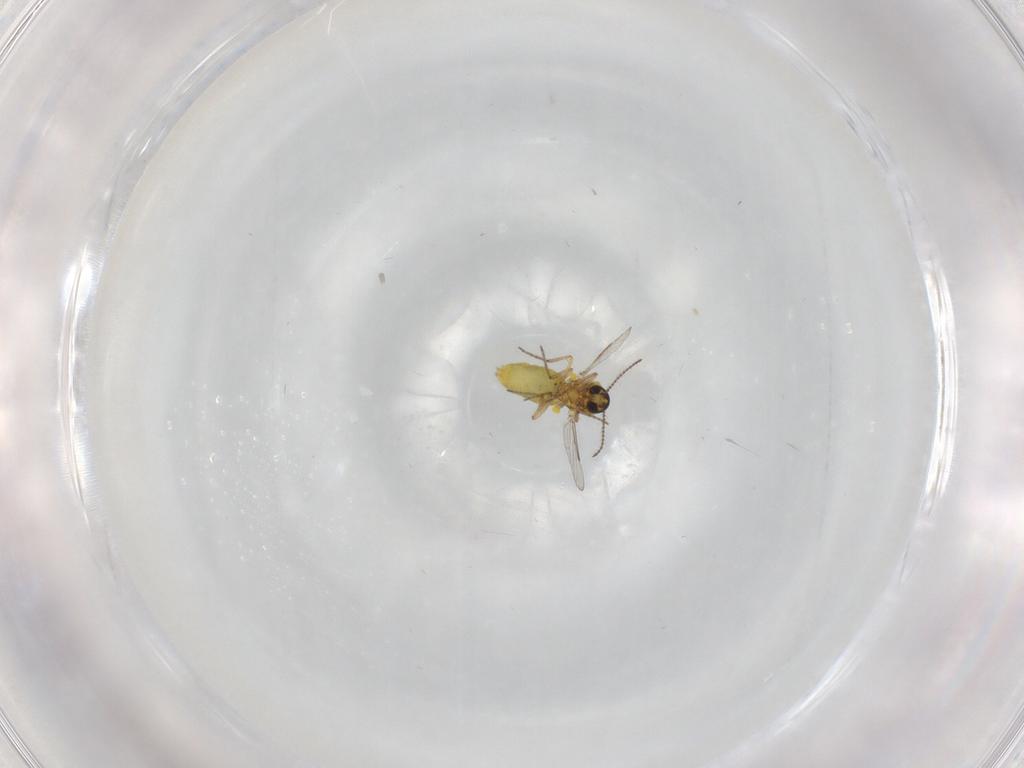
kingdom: Animalia
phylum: Arthropoda
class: Insecta
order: Diptera
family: Ceratopogonidae
